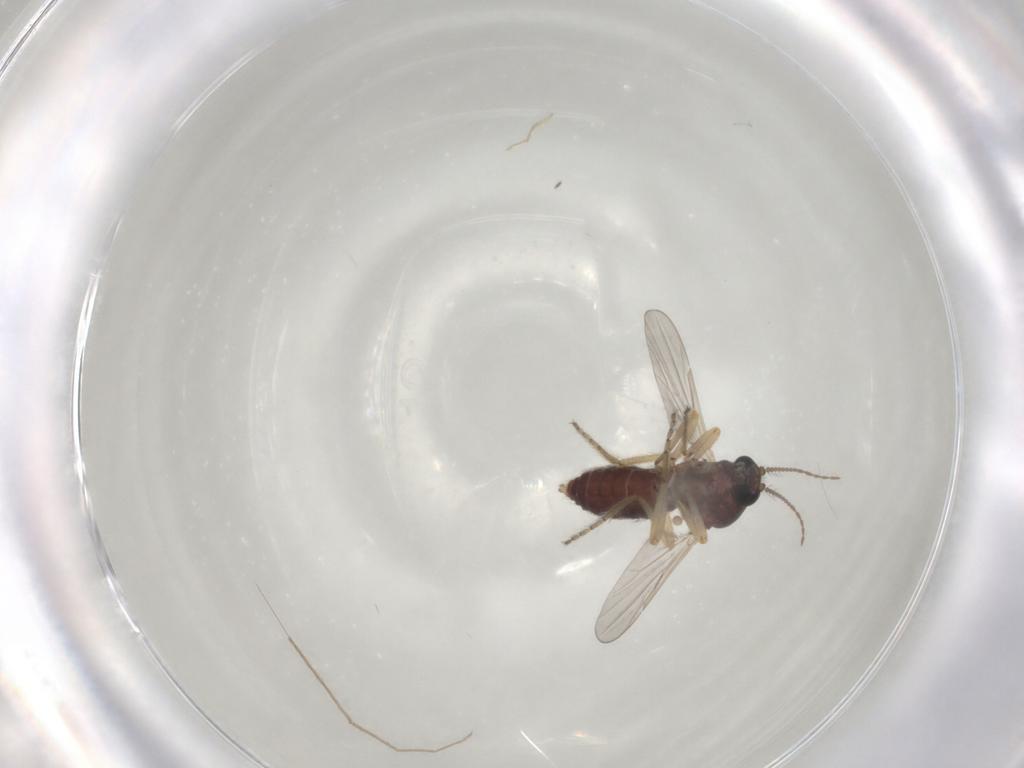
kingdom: Animalia
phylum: Arthropoda
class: Insecta
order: Diptera
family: Ceratopogonidae
